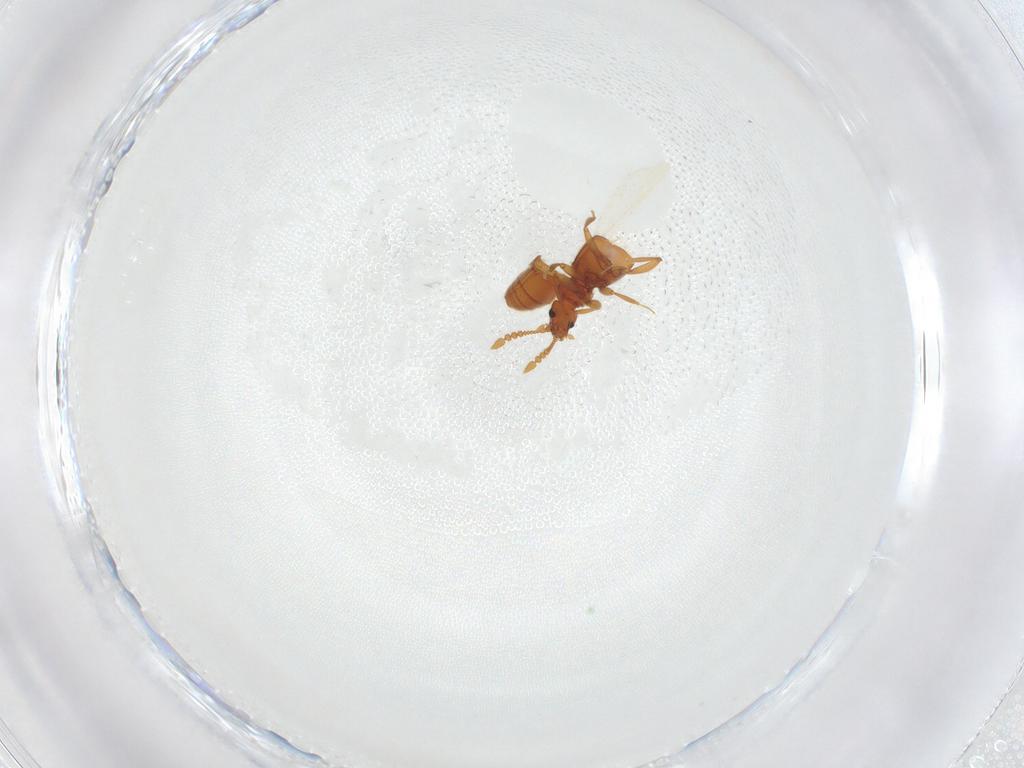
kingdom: Animalia
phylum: Arthropoda
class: Insecta
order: Coleoptera
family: Staphylinidae
